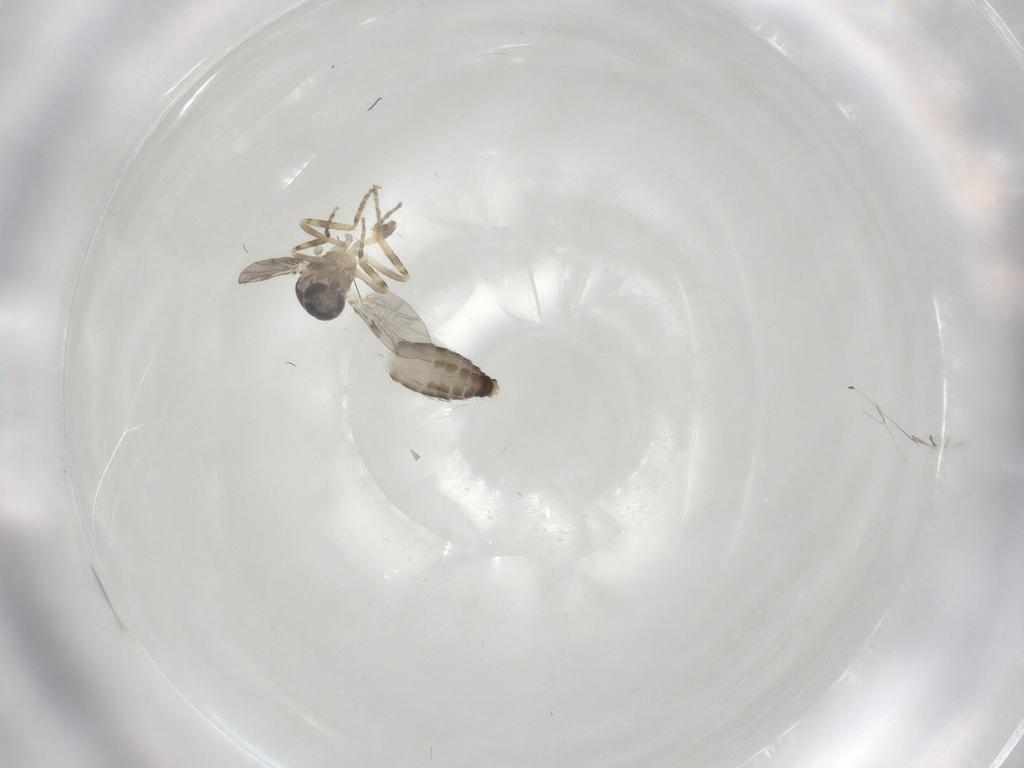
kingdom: Animalia
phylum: Arthropoda
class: Insecta
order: Diptera
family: Ceratopogonidae
